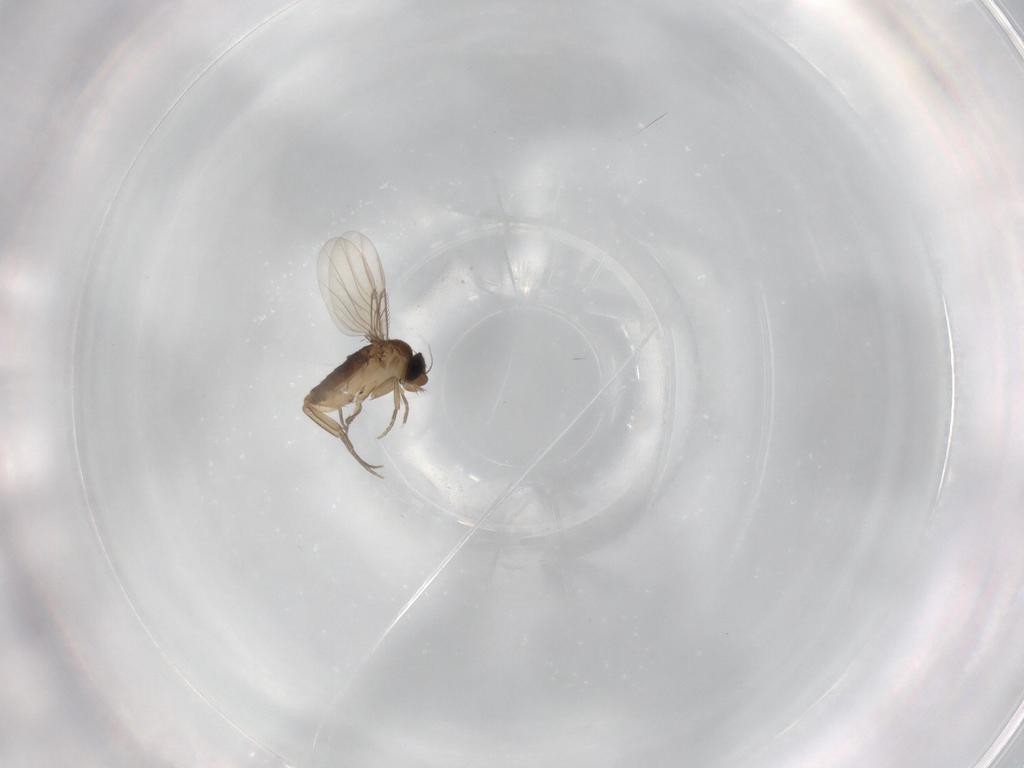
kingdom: Animalia
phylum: Arthropoda
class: Insecta
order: Diptera
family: Phoridae
